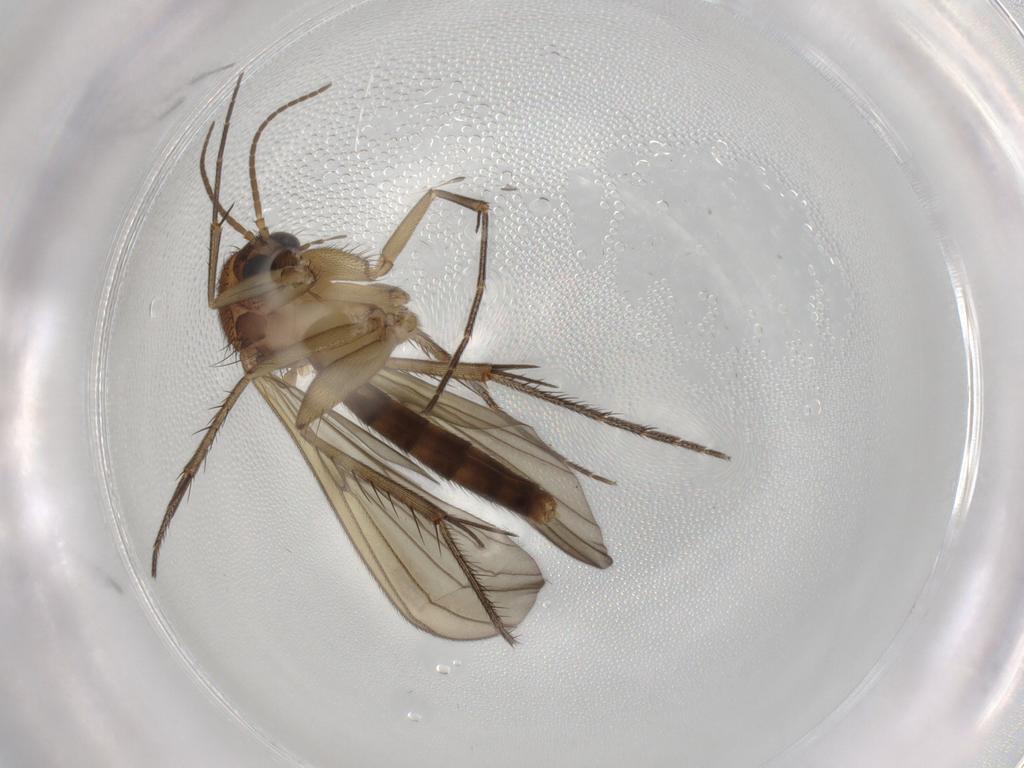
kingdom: Animalia
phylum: Arthropoda
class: Insecta
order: Diptera
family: Mycetophilidae
